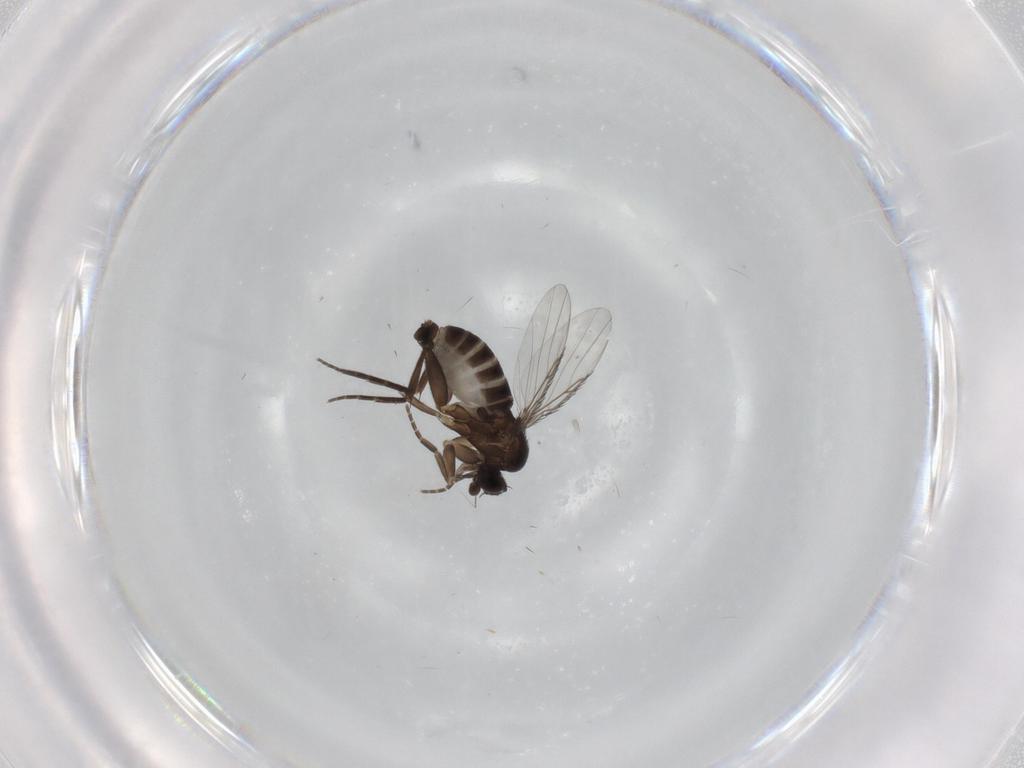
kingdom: Animalia
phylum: Arthropoda
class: Insecta
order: Diptera
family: Phoridae
